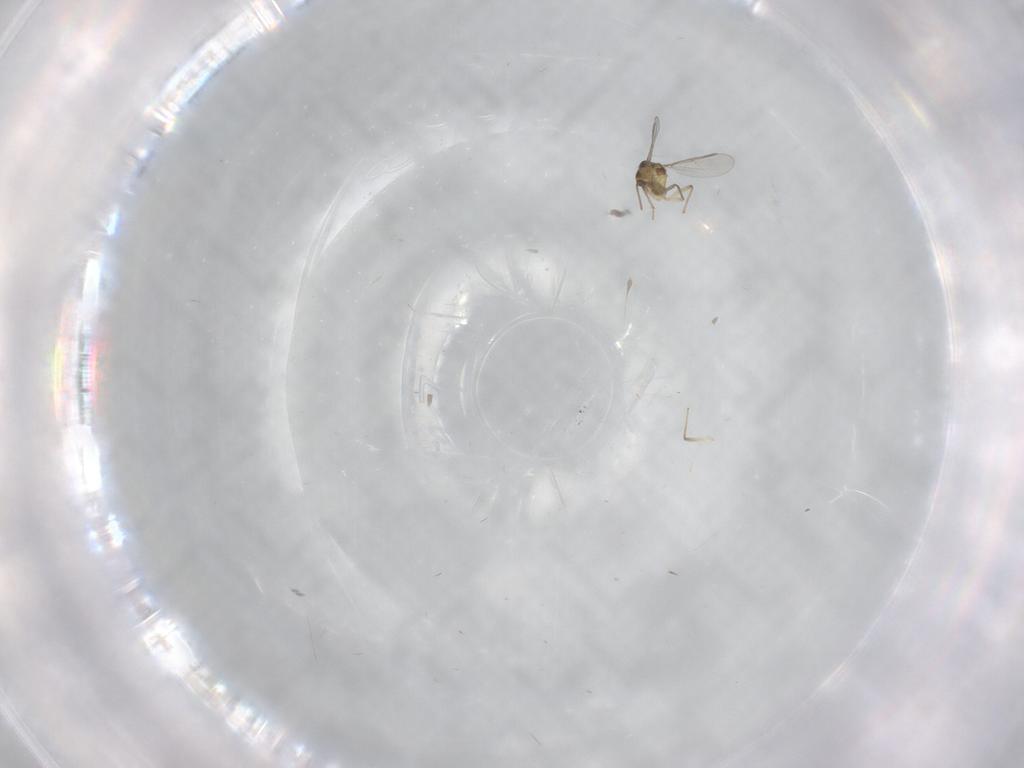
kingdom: Animalia
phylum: Arthropoda
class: Insecta
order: Diptera
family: Chironomidae
